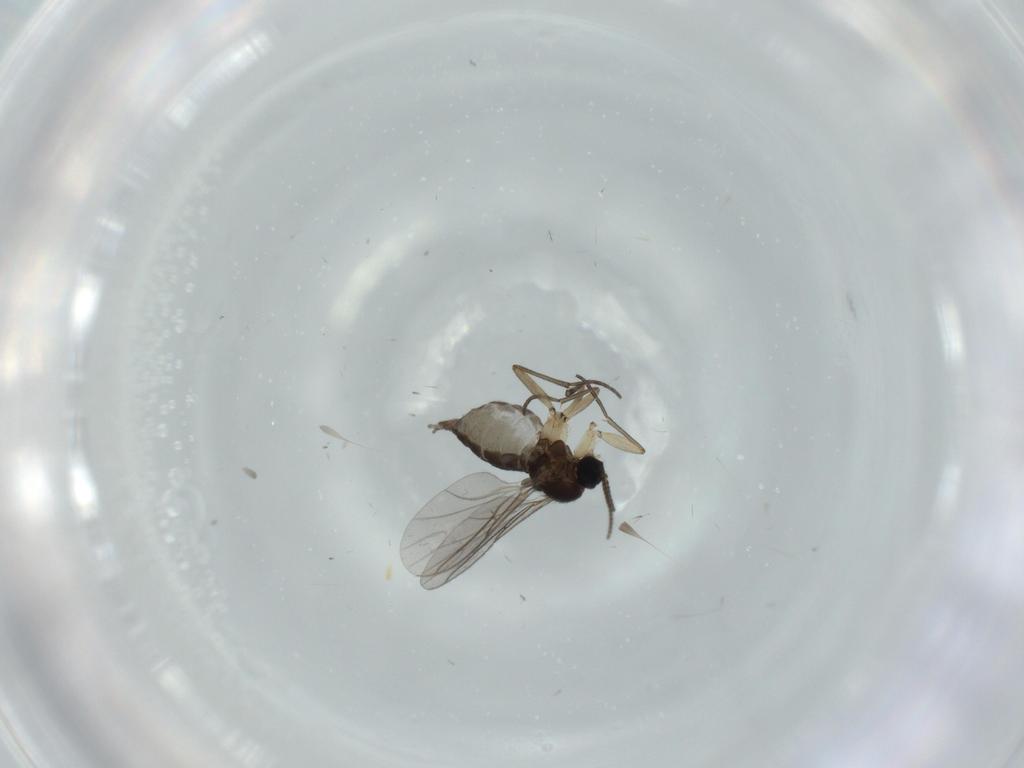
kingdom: Animalia
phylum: Arthropoda
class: Insecta
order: Diptera
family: Sciaridae
